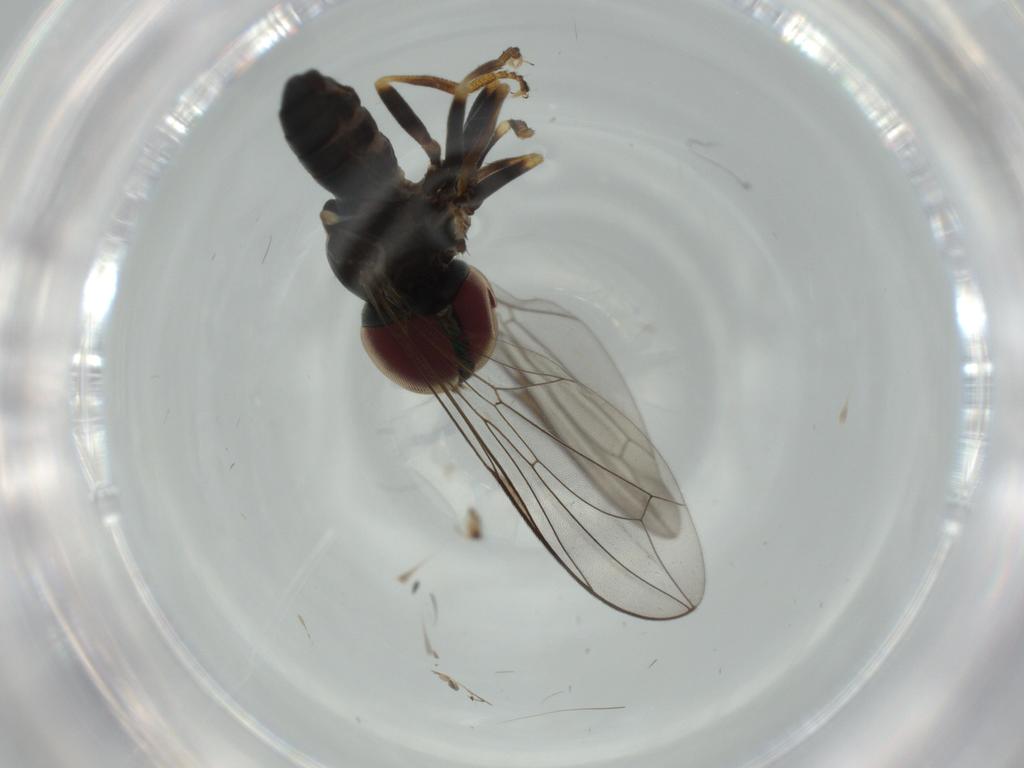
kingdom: Animalia
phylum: Arthropoda
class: Insecta
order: Diptera
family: Pipunculidae
